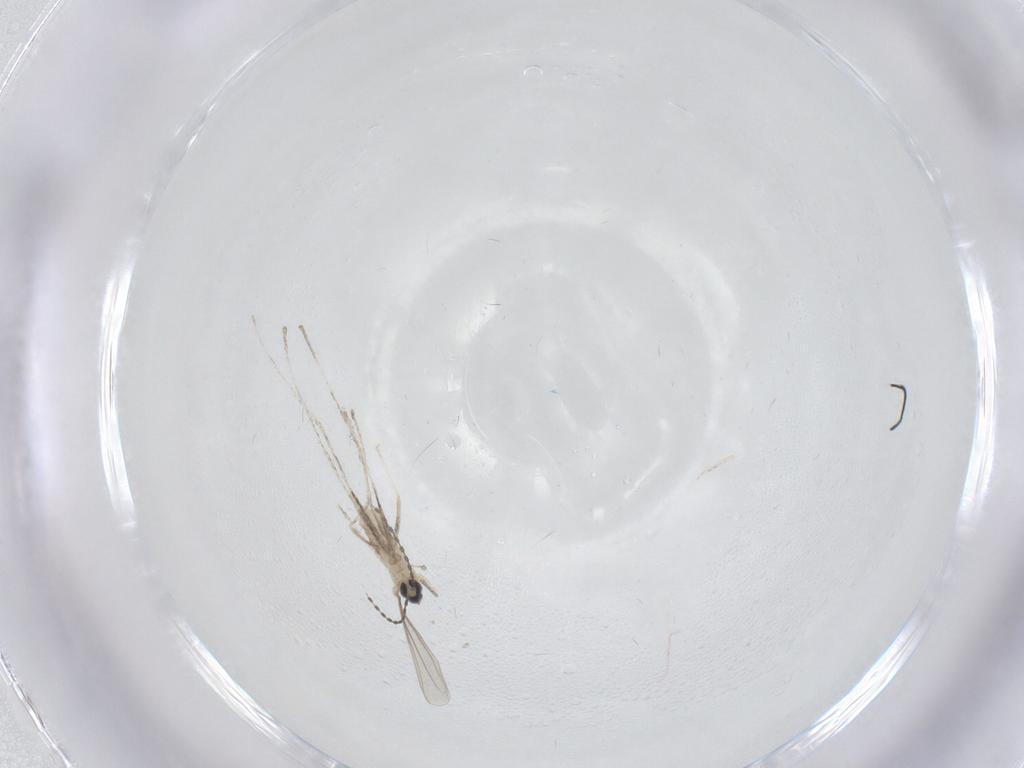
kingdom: Animalia
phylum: Arthropoda
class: Insecta
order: Diptera
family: Cecidomyiidae
